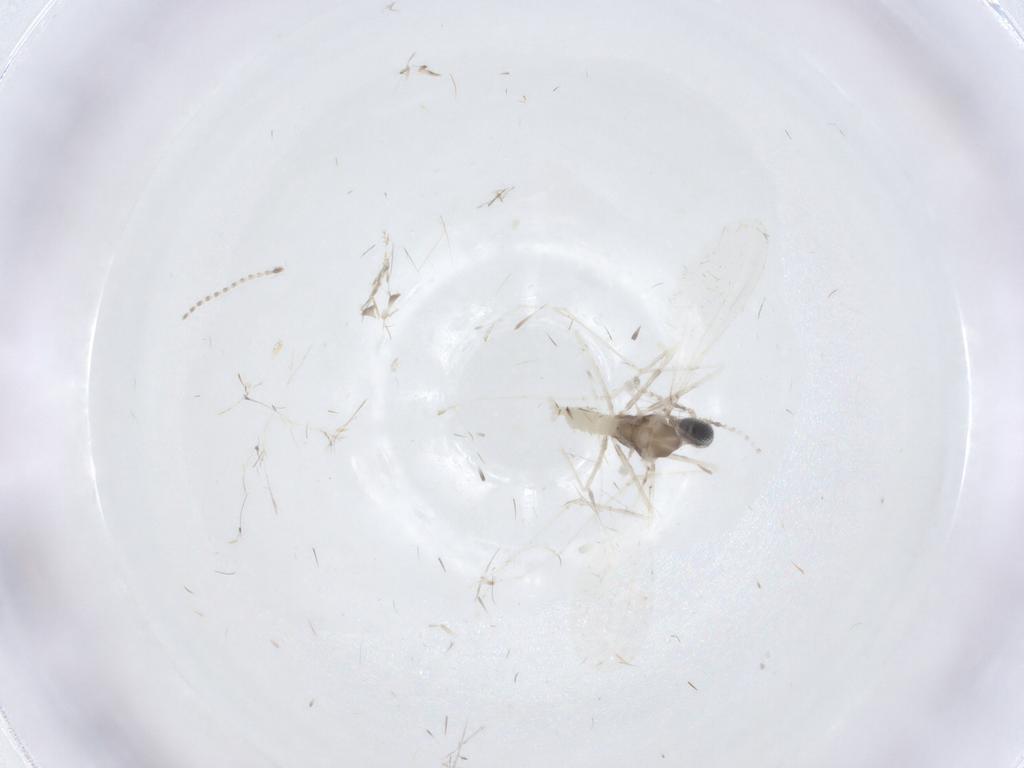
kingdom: Animalia
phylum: Arthropoda
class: Insecta
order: Diptera
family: Cecidomyiidae
